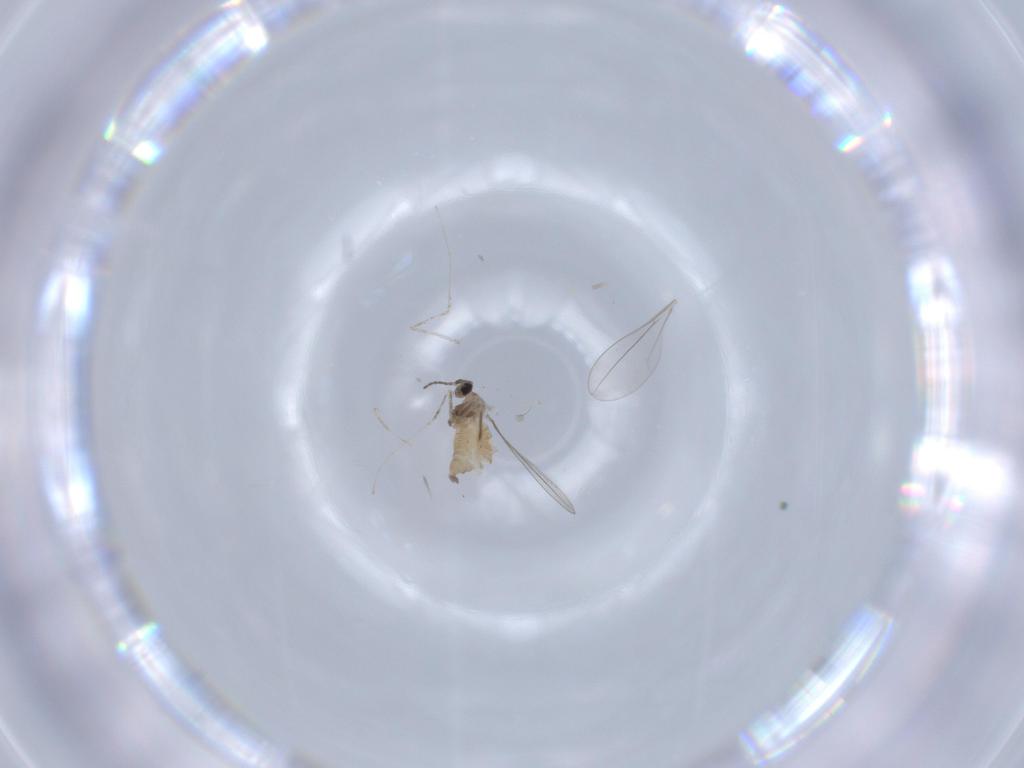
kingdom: Animalia
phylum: Arthropoda
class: Insecta
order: Diptera
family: Cecidomyiidae
